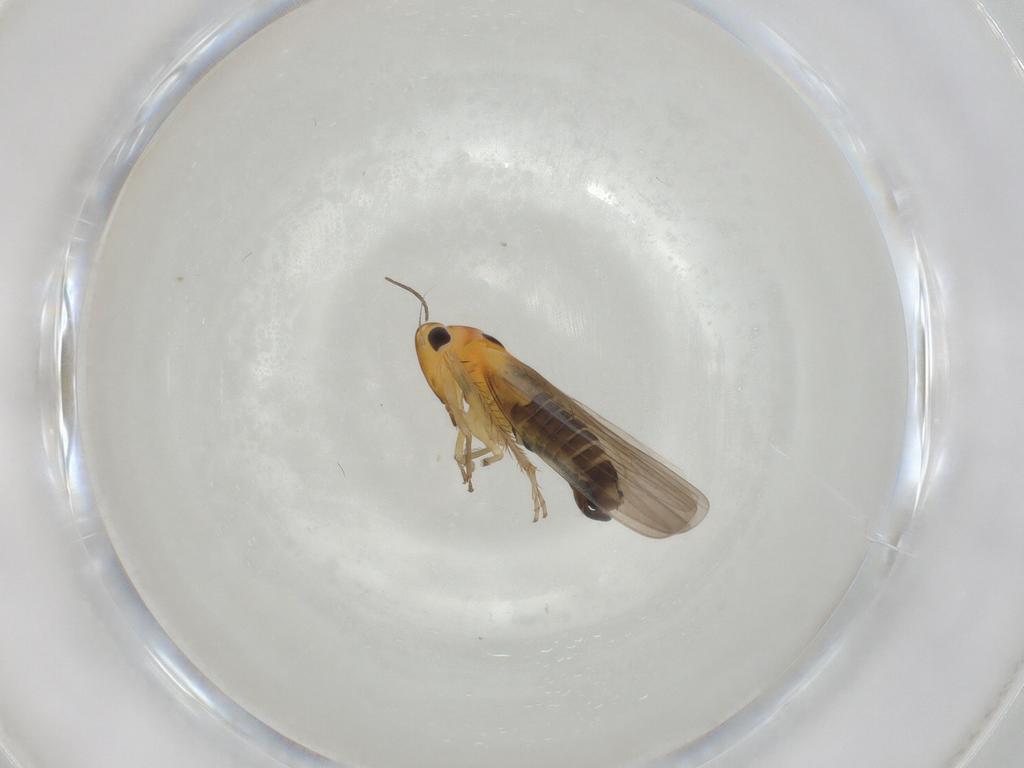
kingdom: Animalia
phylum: Arthropoda
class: Insecta
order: Hemiptera
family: Cicadellidae
